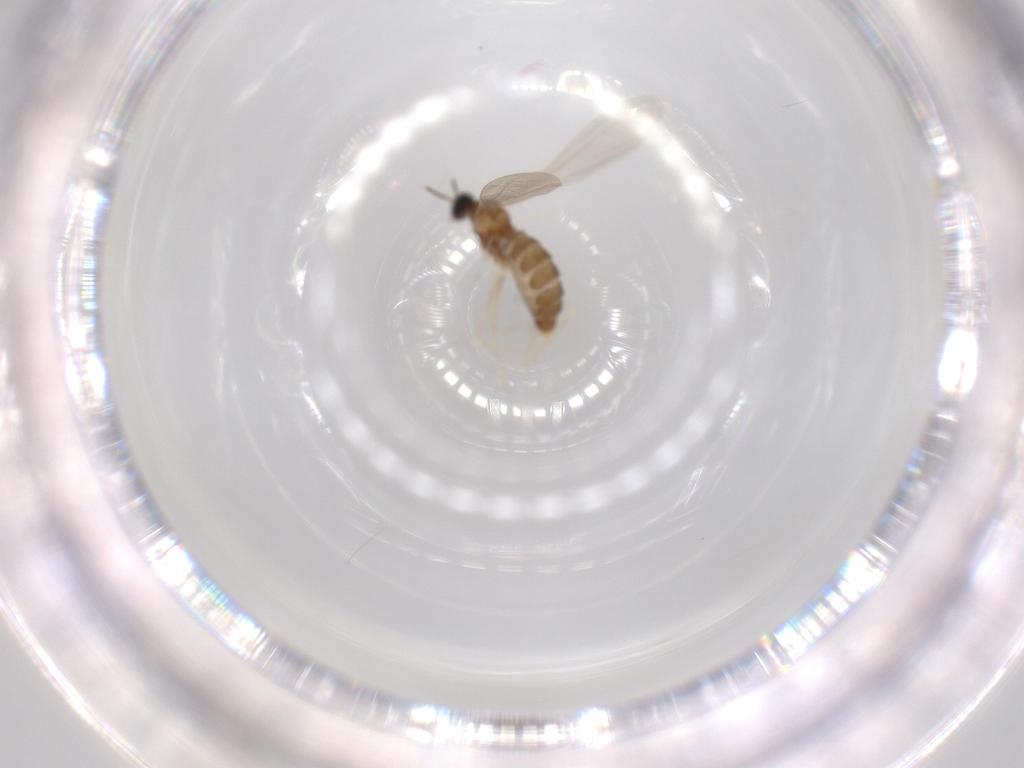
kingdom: Animalia
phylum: Arthropoda
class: Insecta
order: Diptera
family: Cecidomyiidae
